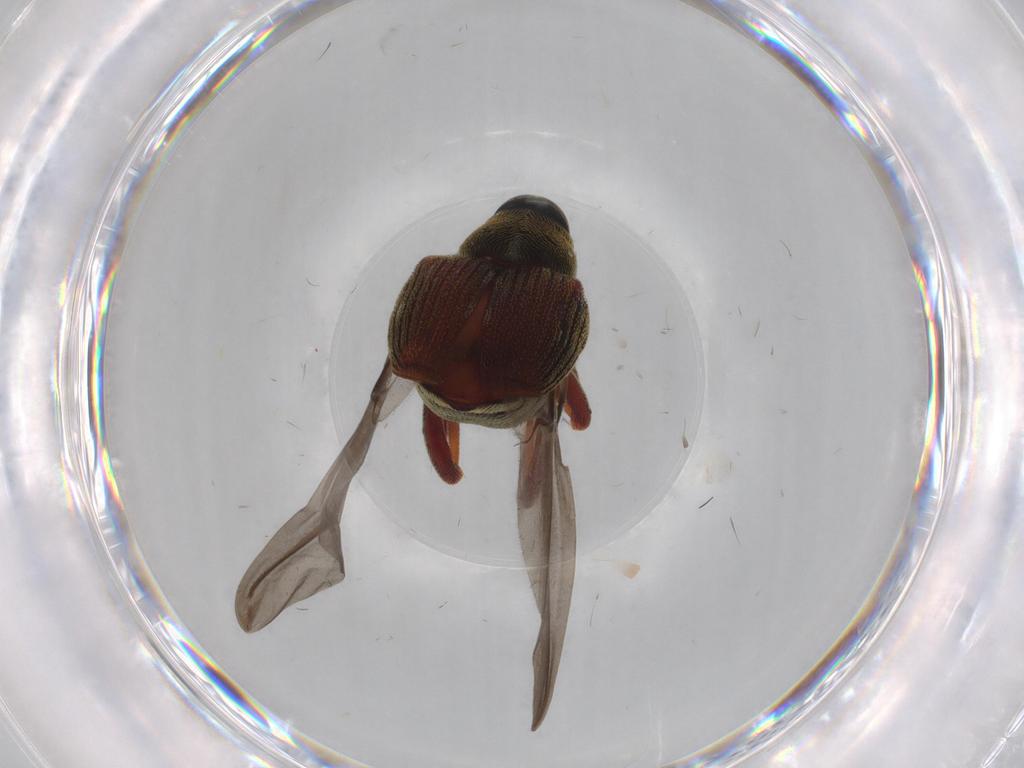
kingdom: Animalia
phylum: Arthropoda
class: Insecta
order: Coleoptera
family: Curculionidae
